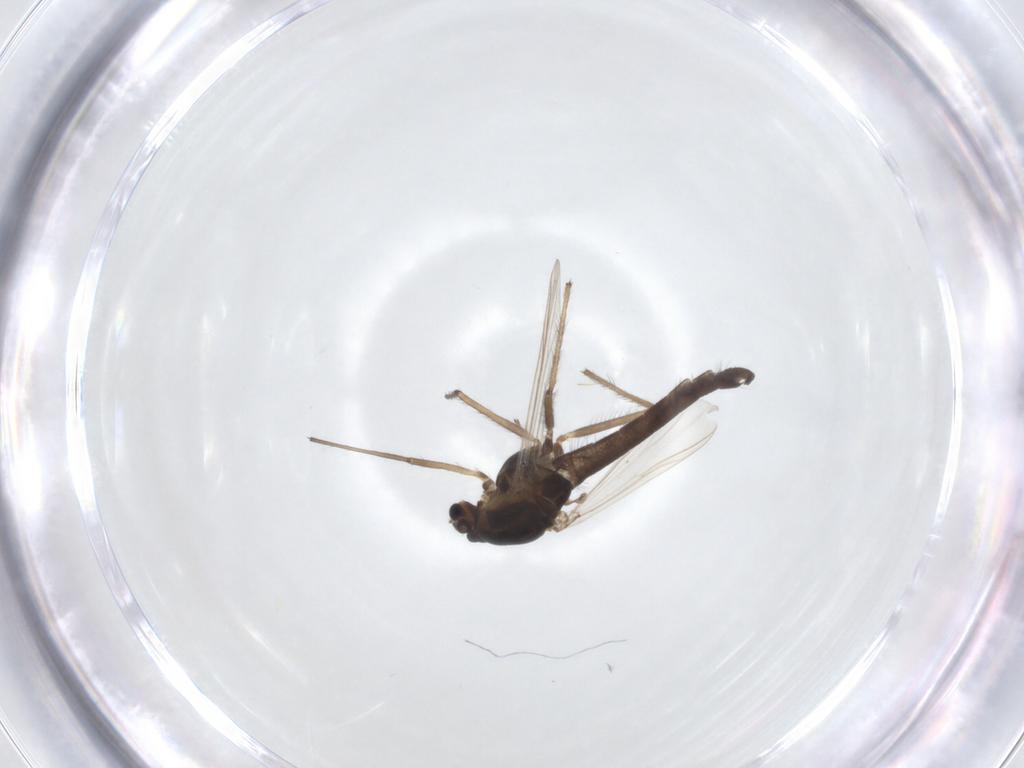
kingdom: Animalia
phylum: Arthropoda
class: Insecta
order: Diptera
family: Chironomidae
